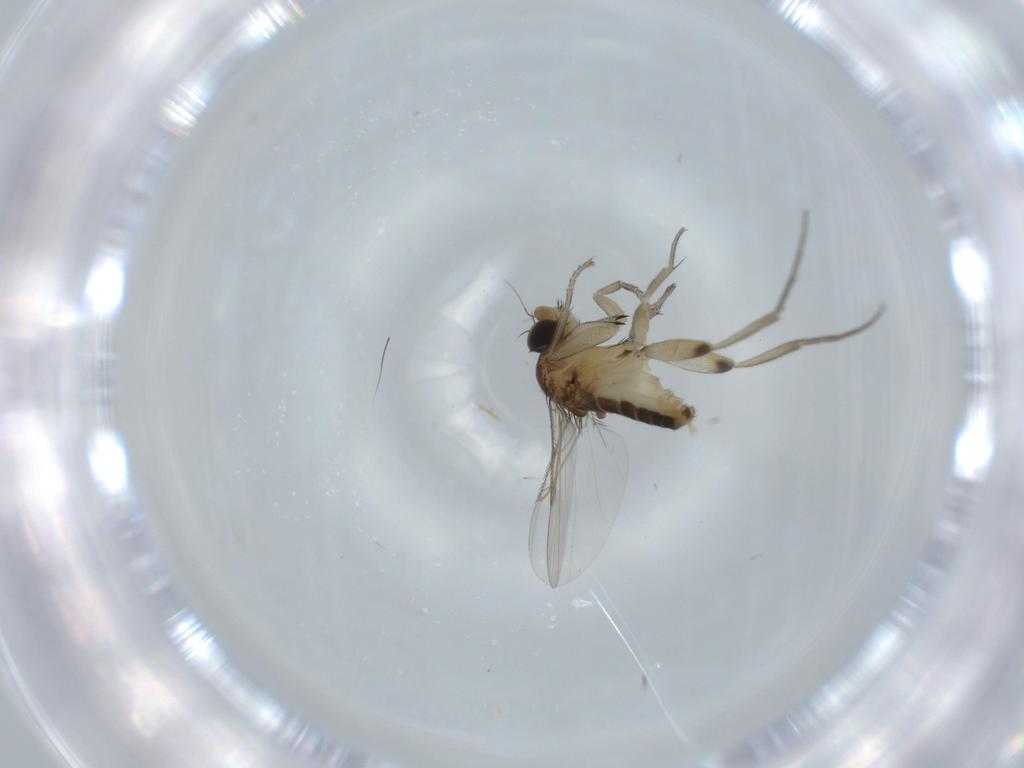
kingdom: Animalia
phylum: Arthropoda
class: Insecta
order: Diptera
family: Phoridae
